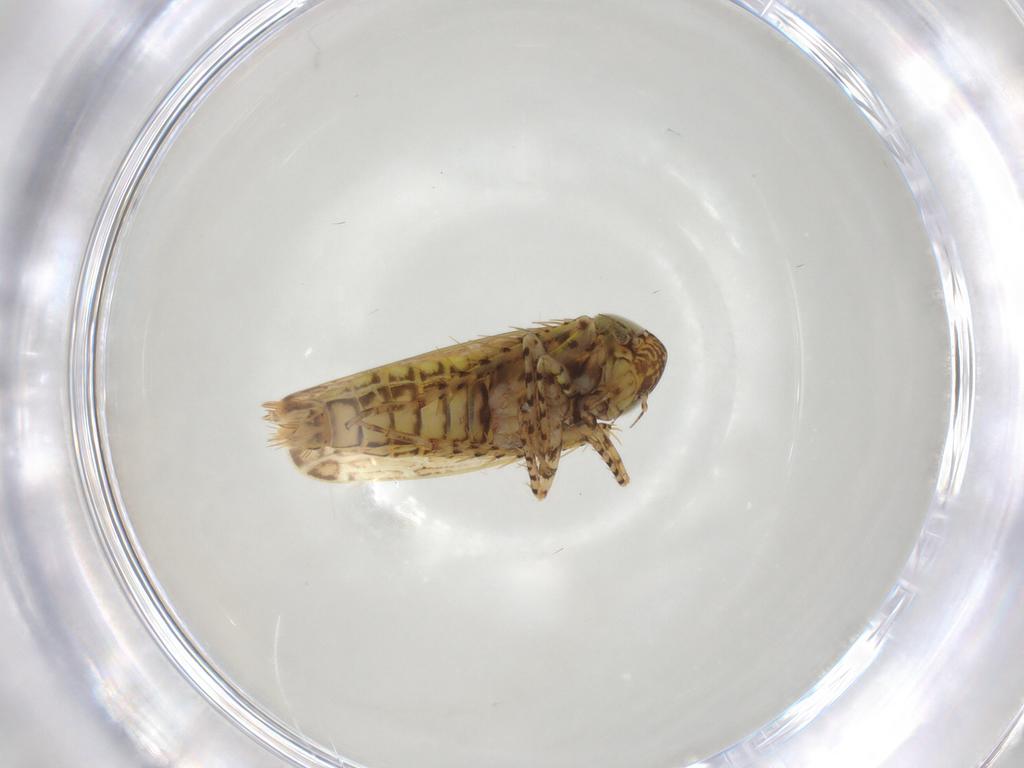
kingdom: Animalia
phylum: Arthropoda
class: Insecta
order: Hemiptera
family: Cicadellidae
